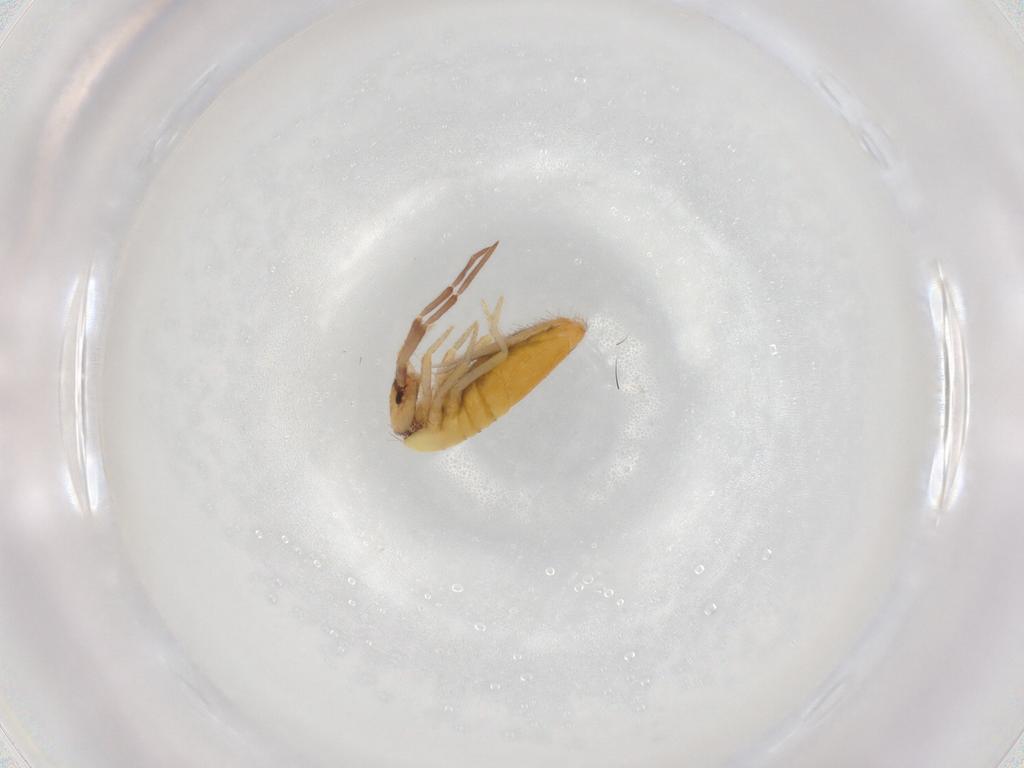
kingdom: Animalia
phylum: Arthropoda
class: Collembola
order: Entomobryomorpha
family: Entomobryidae
